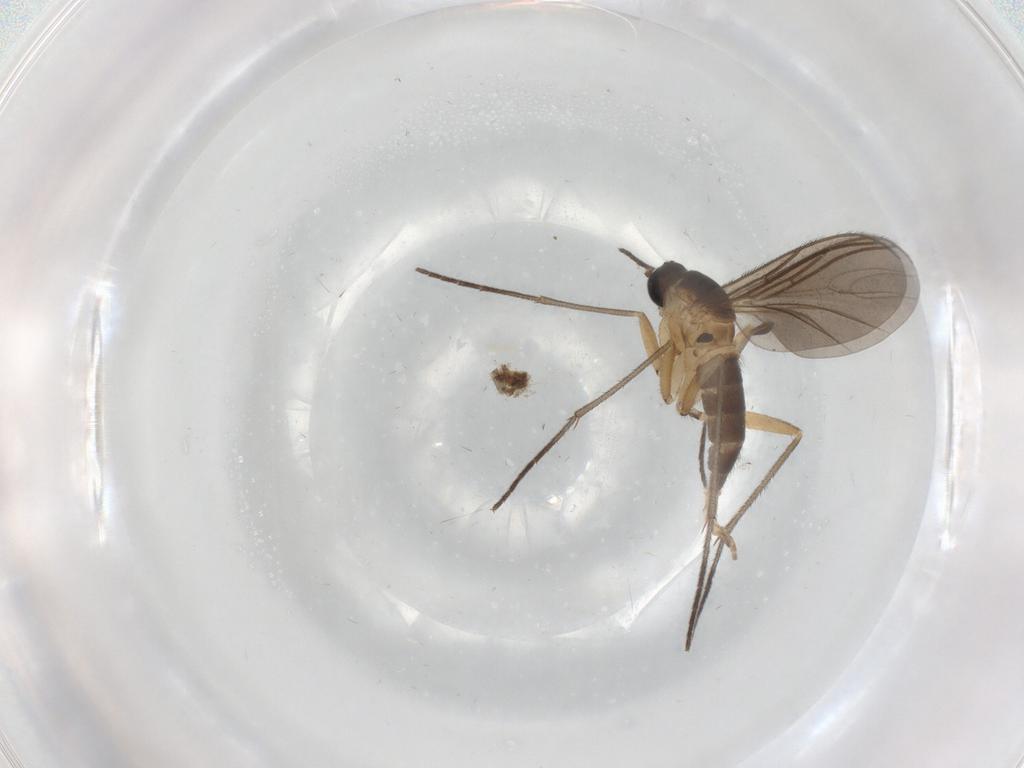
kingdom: Animalia
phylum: Arthropoda
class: Insecta
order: Diptera
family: Sciaridae
